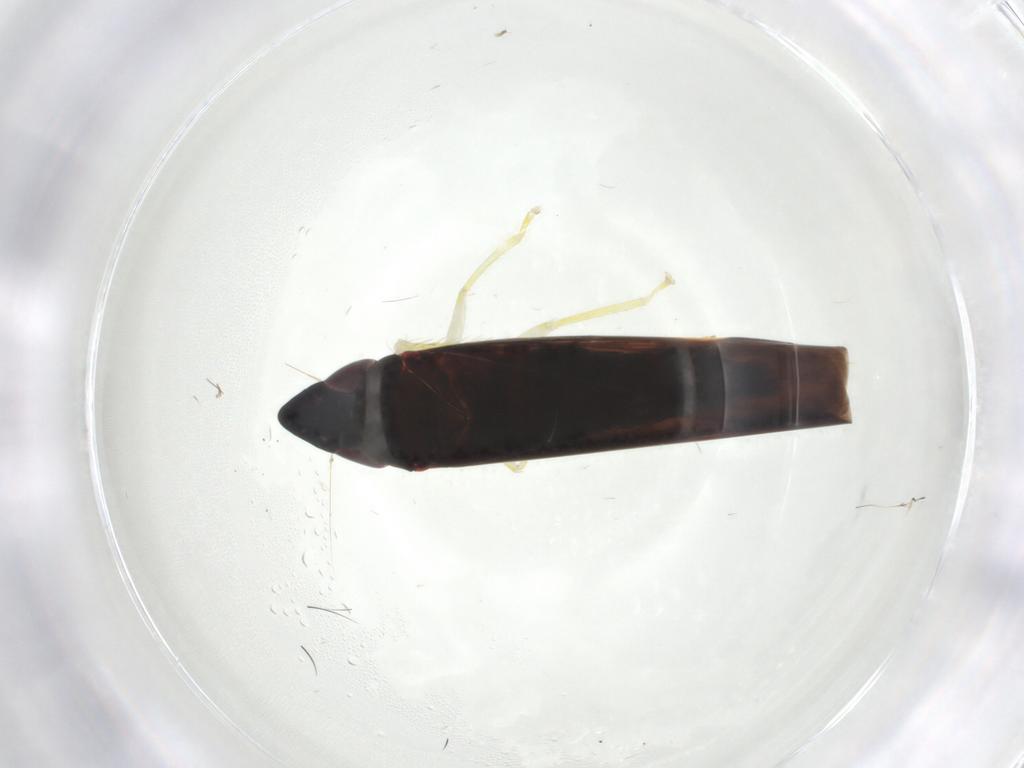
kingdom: Animalia
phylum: Arthropoda
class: Insecta
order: Hemiptera
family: Cicadellidae
